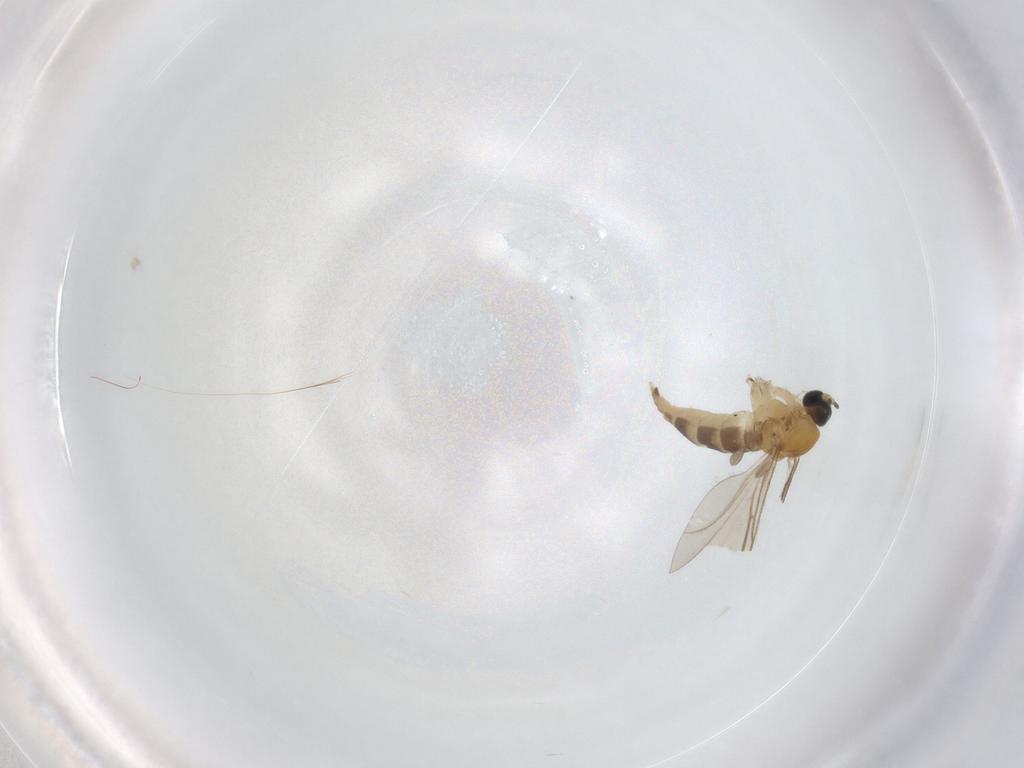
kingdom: Animalia
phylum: Arthropoda
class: Insecta
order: Diptera
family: Sciaridae
